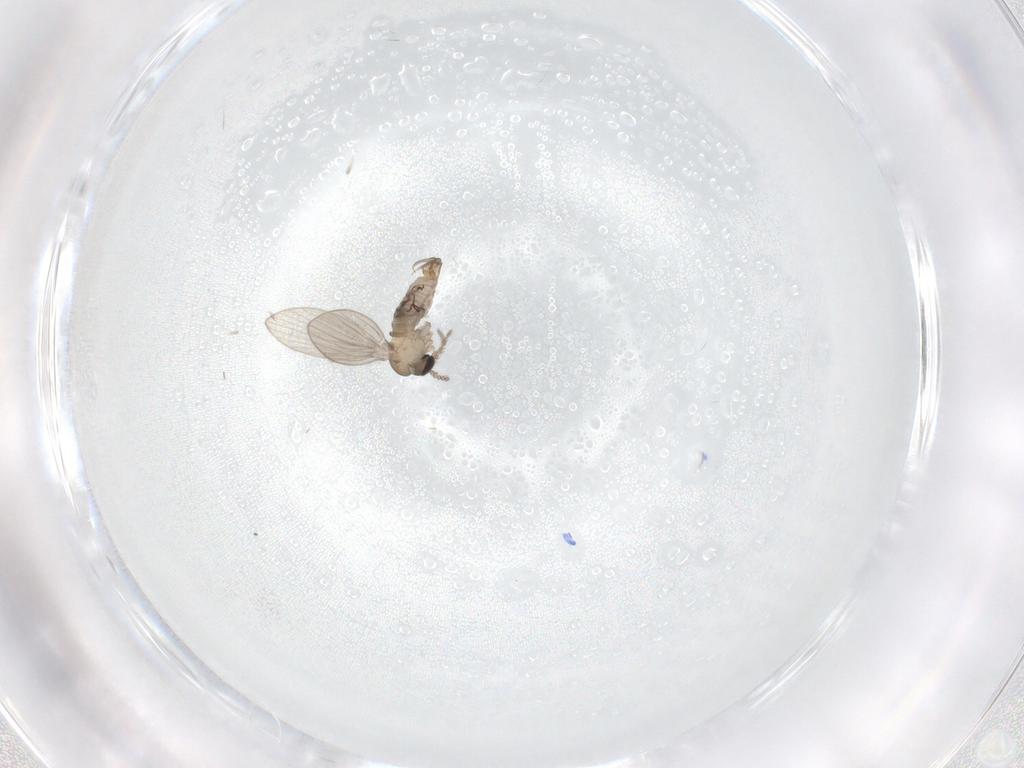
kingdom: Animalia
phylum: Arthropoda
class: Insecta
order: Diptera
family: Psychodidae
